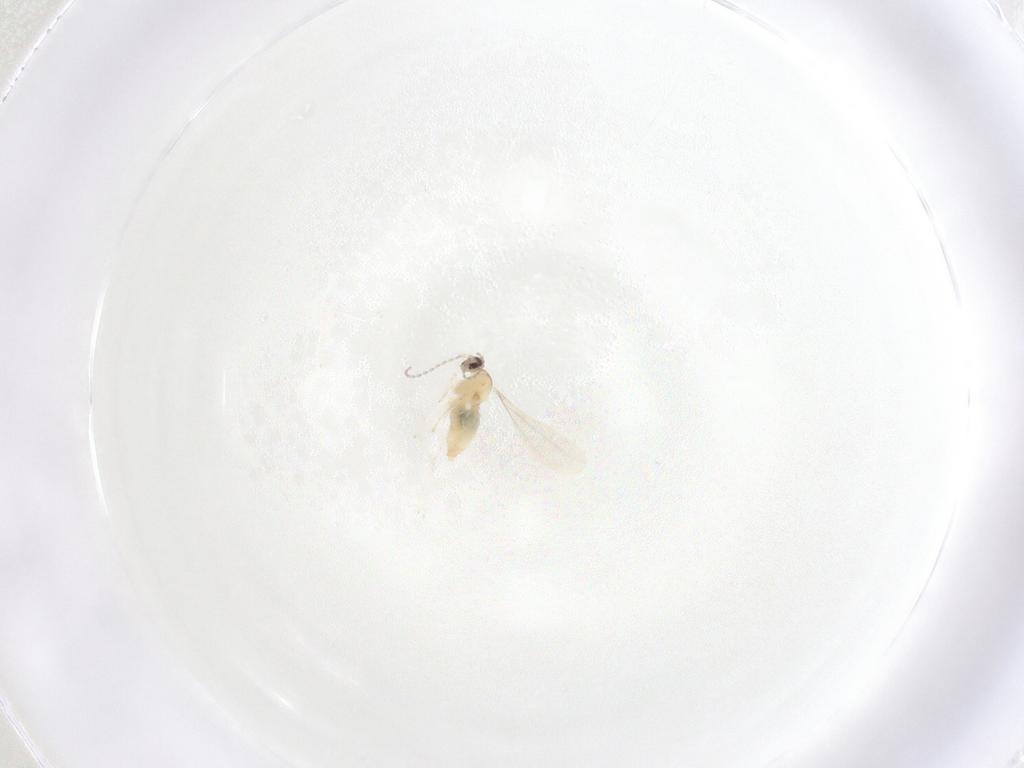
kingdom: Animalia
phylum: Arthropoda
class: Insecta
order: Diptera
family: Cecidomyiidae
